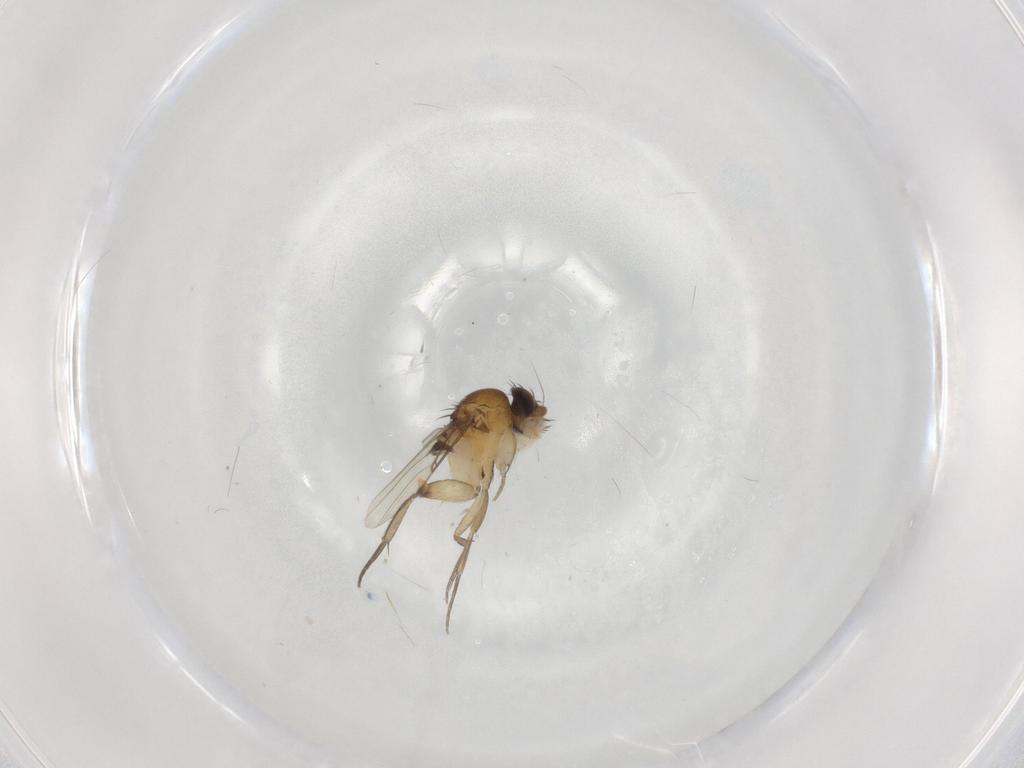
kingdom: Animalia
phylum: Arthropoda
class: Insecta
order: Diptera
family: Phoridae
